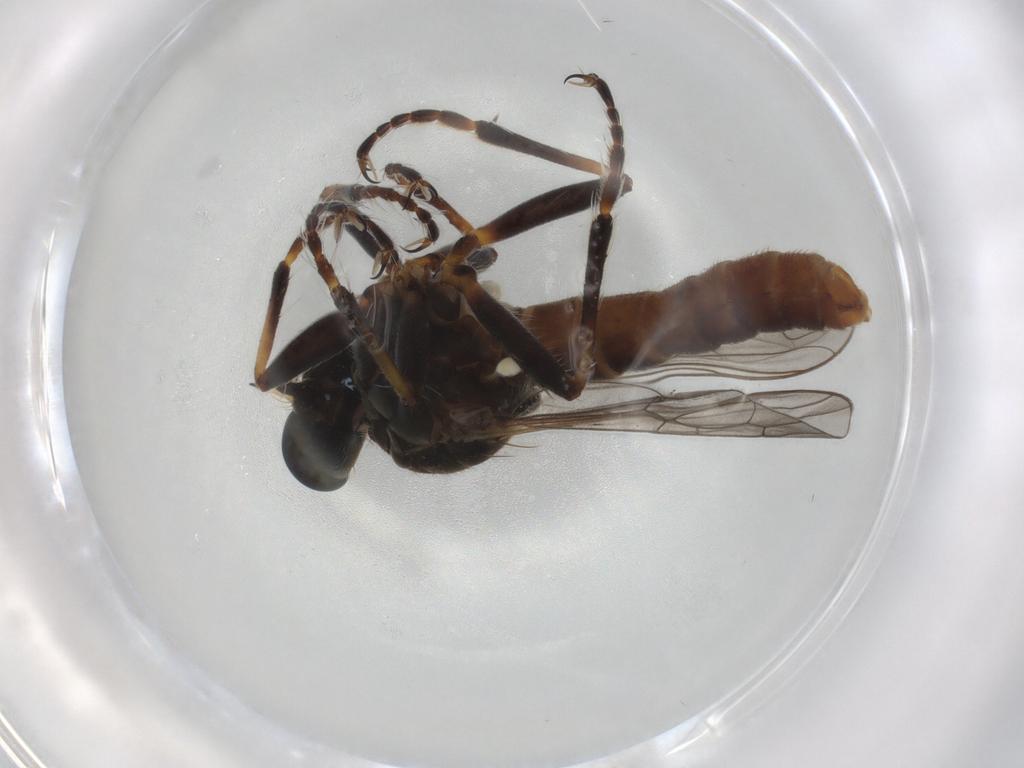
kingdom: Animalia
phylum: Arthropoda
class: Insecta
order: Diptera
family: Asilidae
